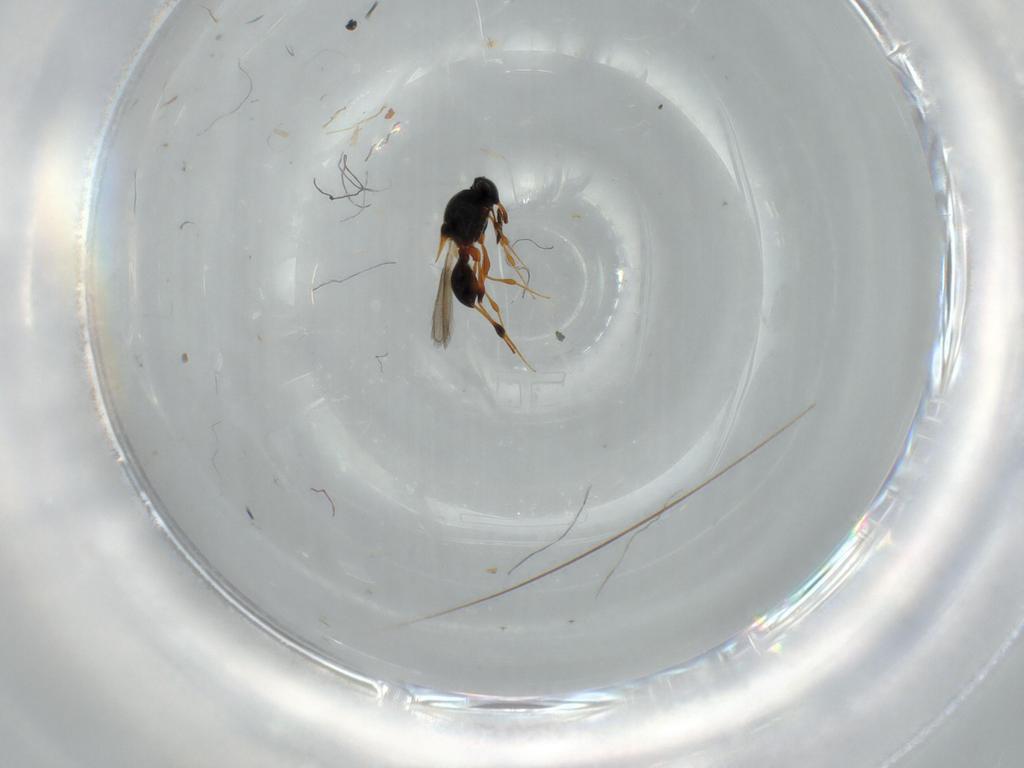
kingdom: Animalia
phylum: Arthropoda
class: Insecta
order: Hymenoptera
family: Platygastridae
